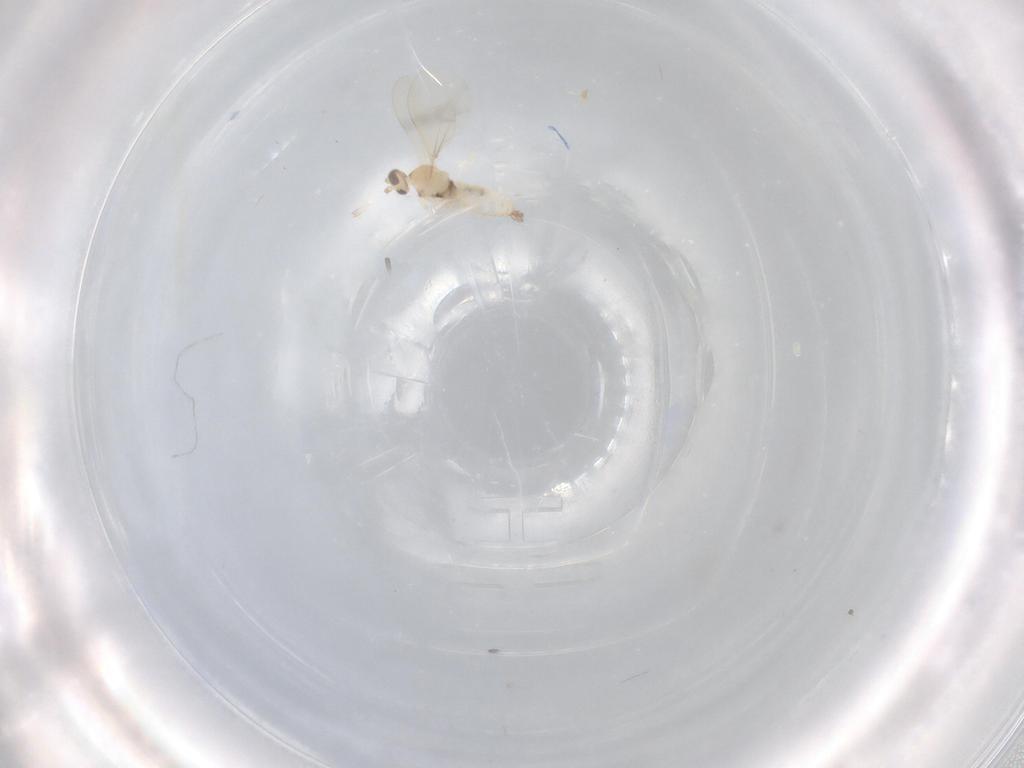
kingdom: Animalia
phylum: Arthropoda
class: Insecta
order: Diptera
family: Cecidomyiidae
